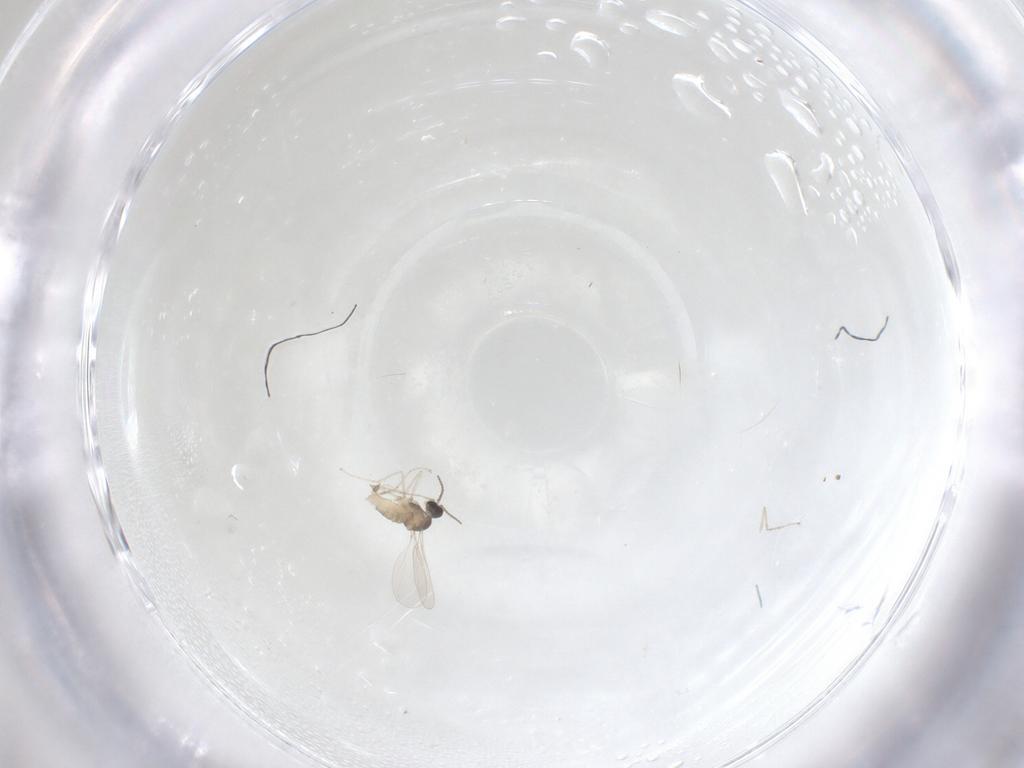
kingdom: Animalia
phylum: Arthropoda
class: Insecta
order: Diptera
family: Cecidomyiidae
